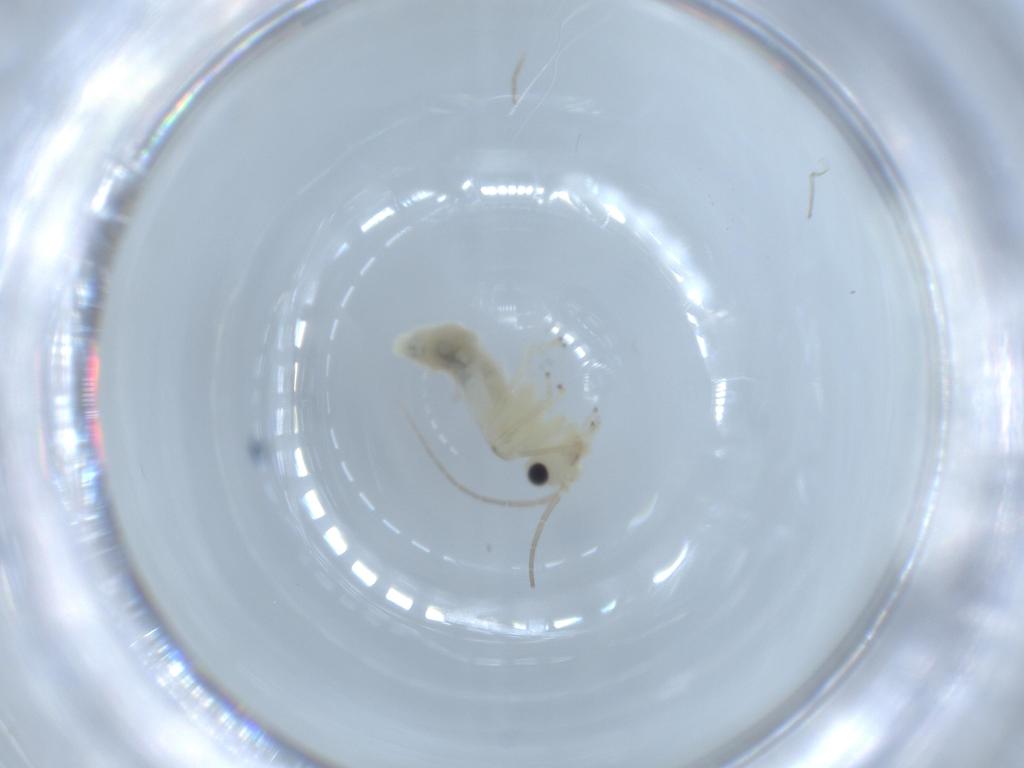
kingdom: Animalia
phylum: Arthropoda
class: Insecta
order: Psocodea
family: Caeciliusidae
